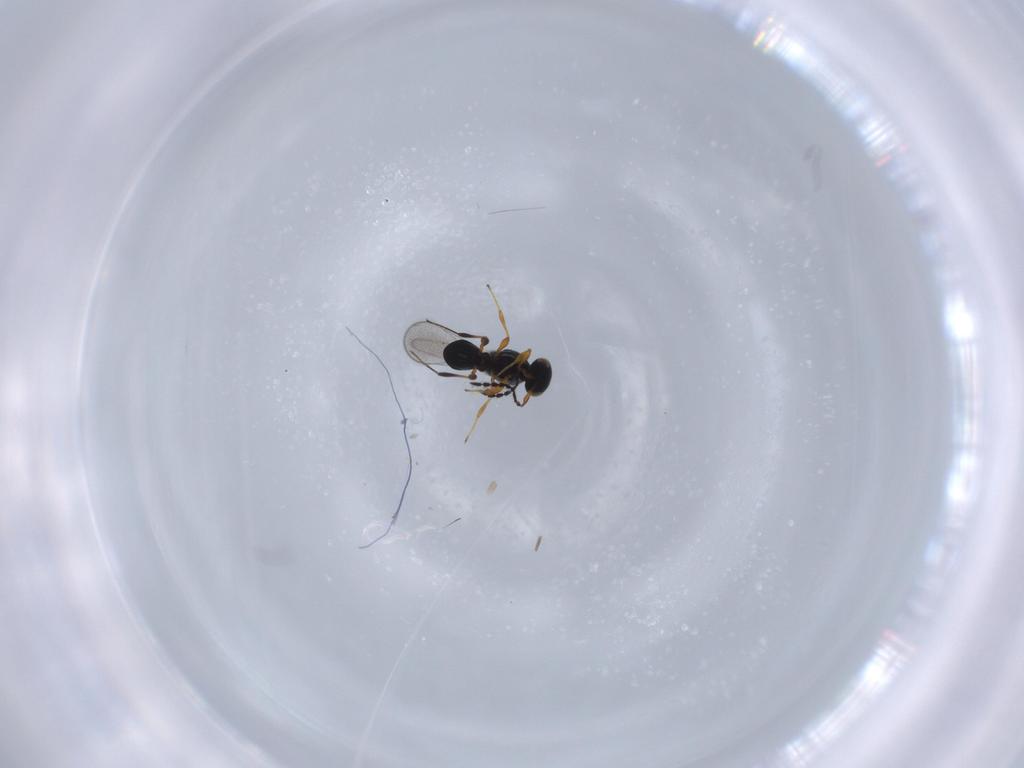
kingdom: Animalia
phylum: Arthropoda
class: Insecta
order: Hymenoptera
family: Platygastridae
